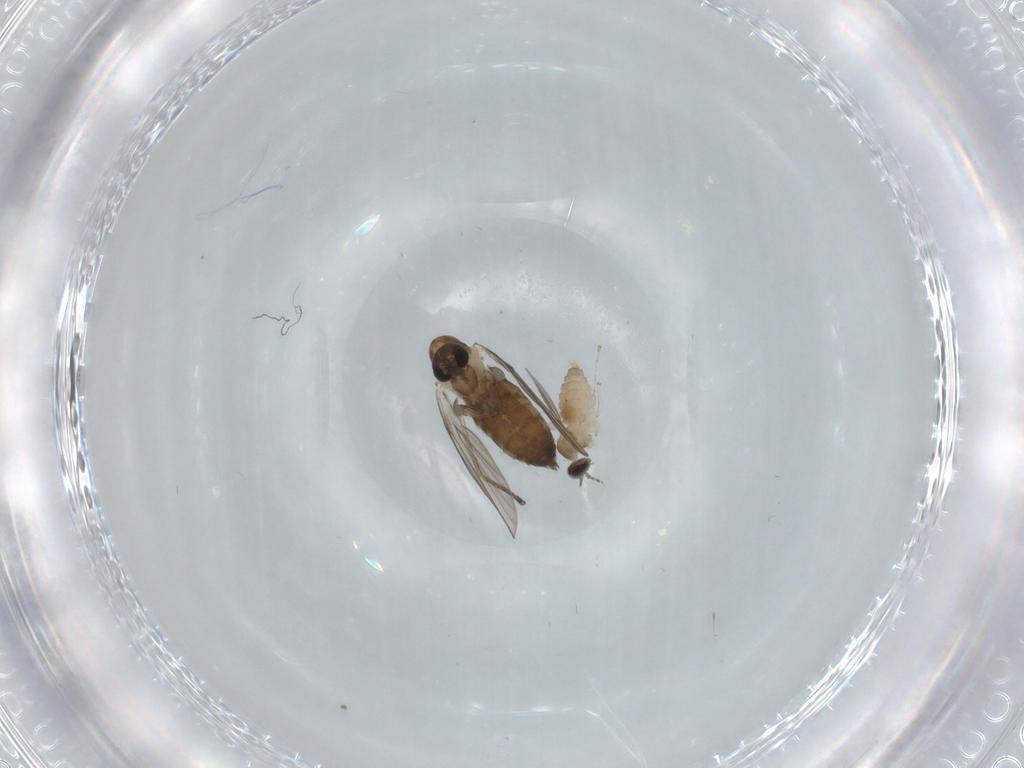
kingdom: Animalia
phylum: Arthropoda
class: Insecta
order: Diptera
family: Cecidomyiidae
